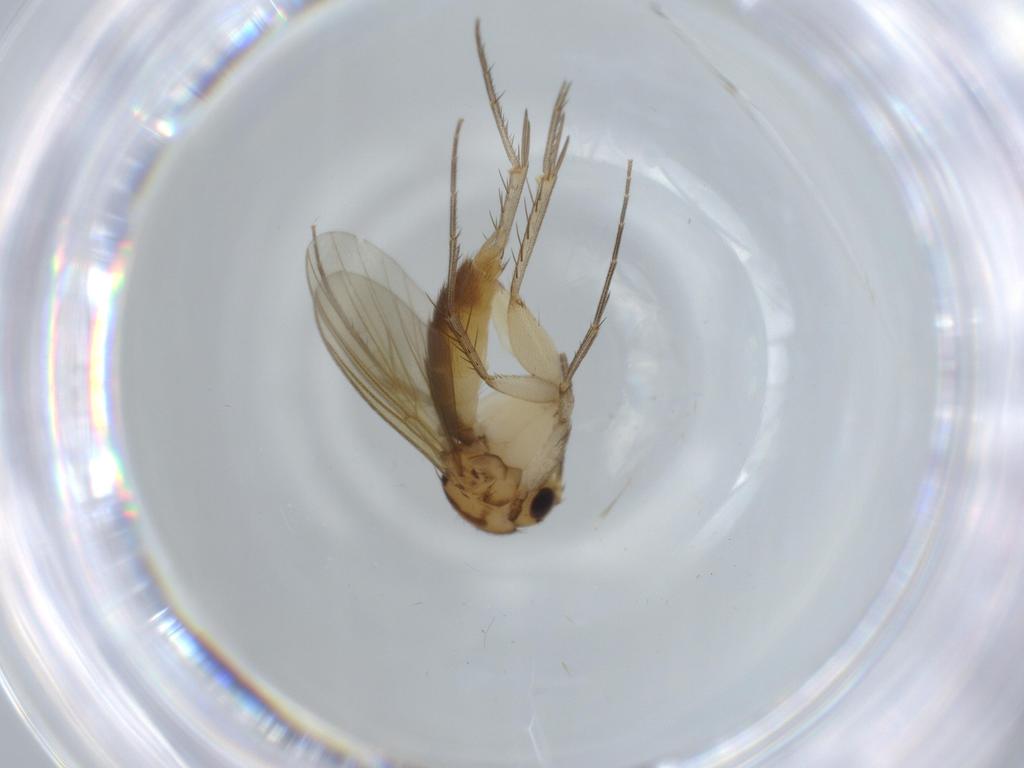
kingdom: Animalia
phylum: Arthropoda
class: Insecta
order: Diptera
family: Mycetophilidae
